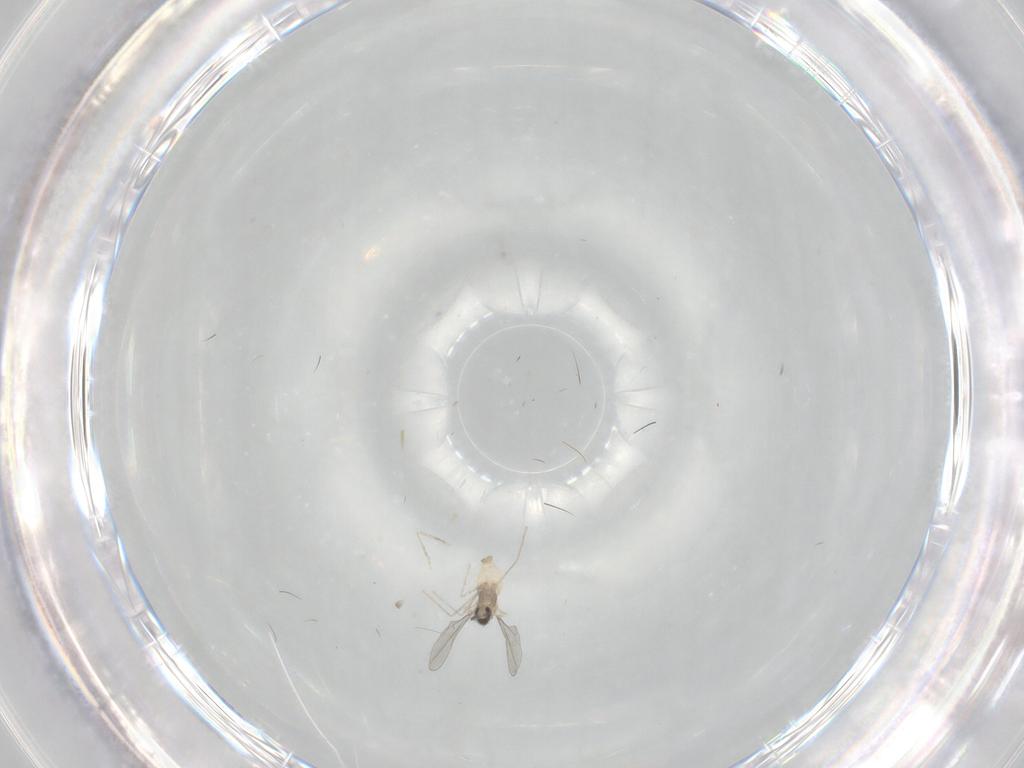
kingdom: Animalia
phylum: Arthropoda
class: Insecta
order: Diptera
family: Cecidomyiidae
